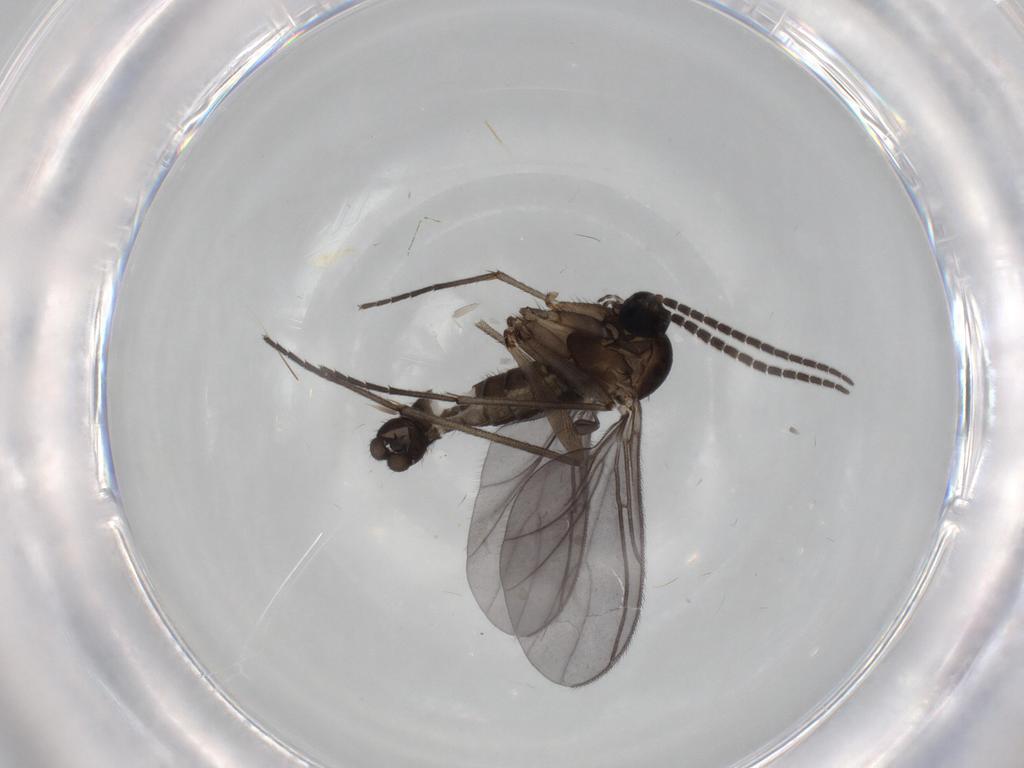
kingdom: Animalia
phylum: Arthropoda
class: Insecta
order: Diptera
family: Sciaridae
